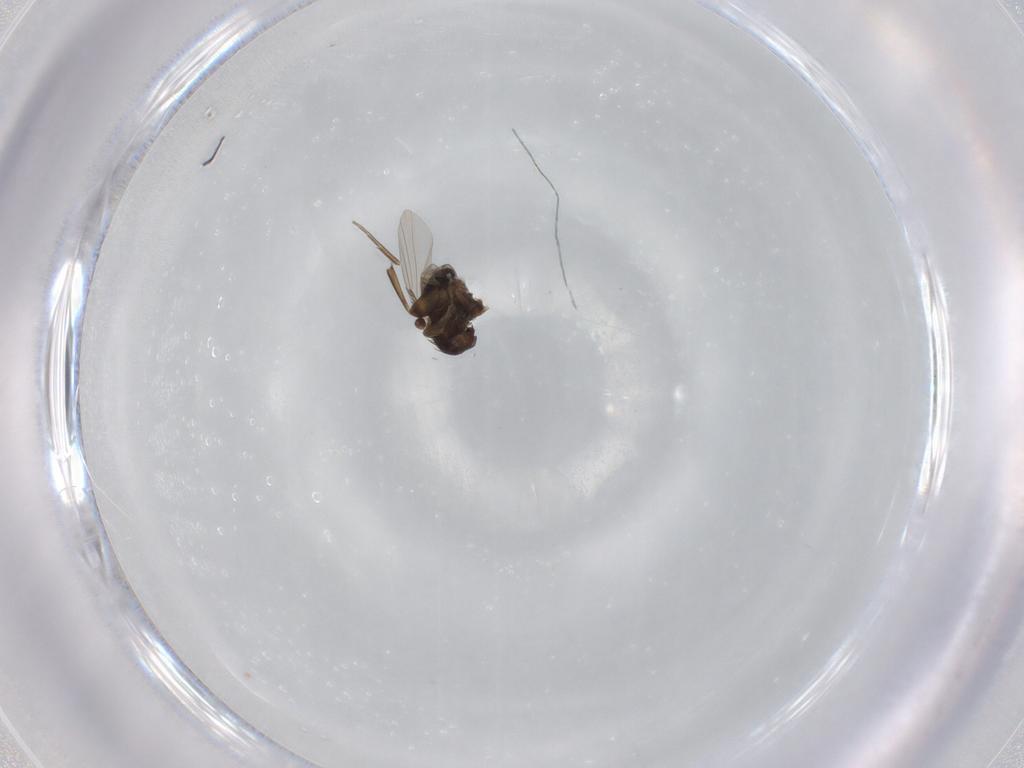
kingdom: Animalia
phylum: Arthropoda
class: Insecta
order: Diptera
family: Phoridae
